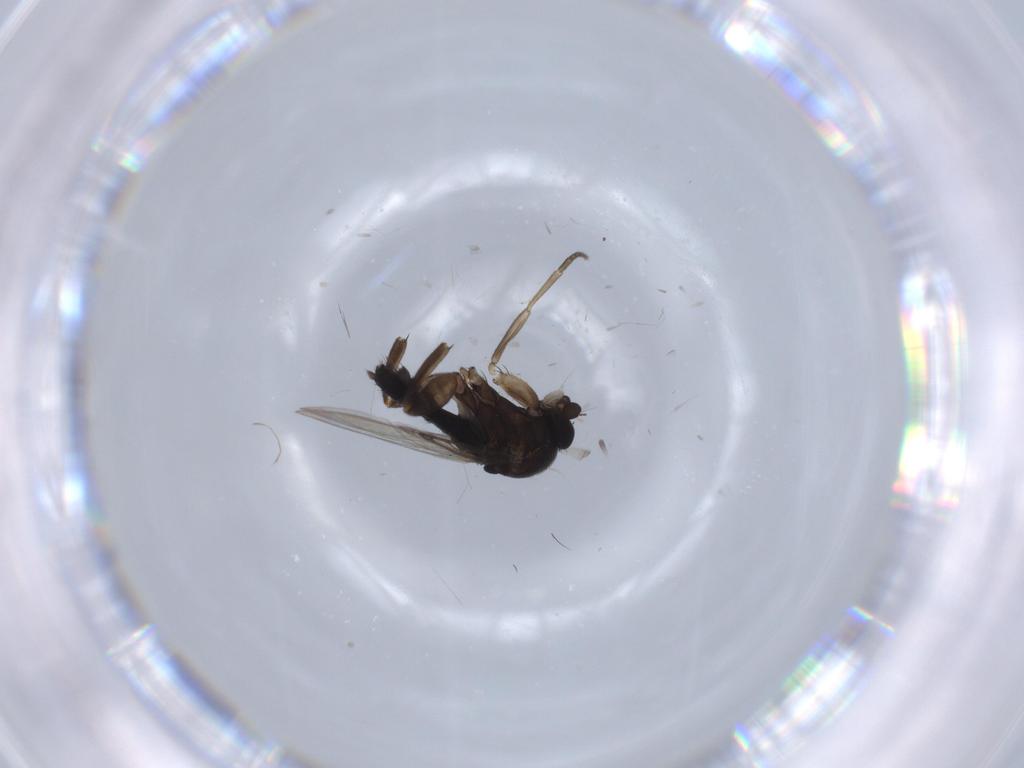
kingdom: Animalia
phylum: Arthropoda
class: Insecta
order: Diptera
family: Phoridae
